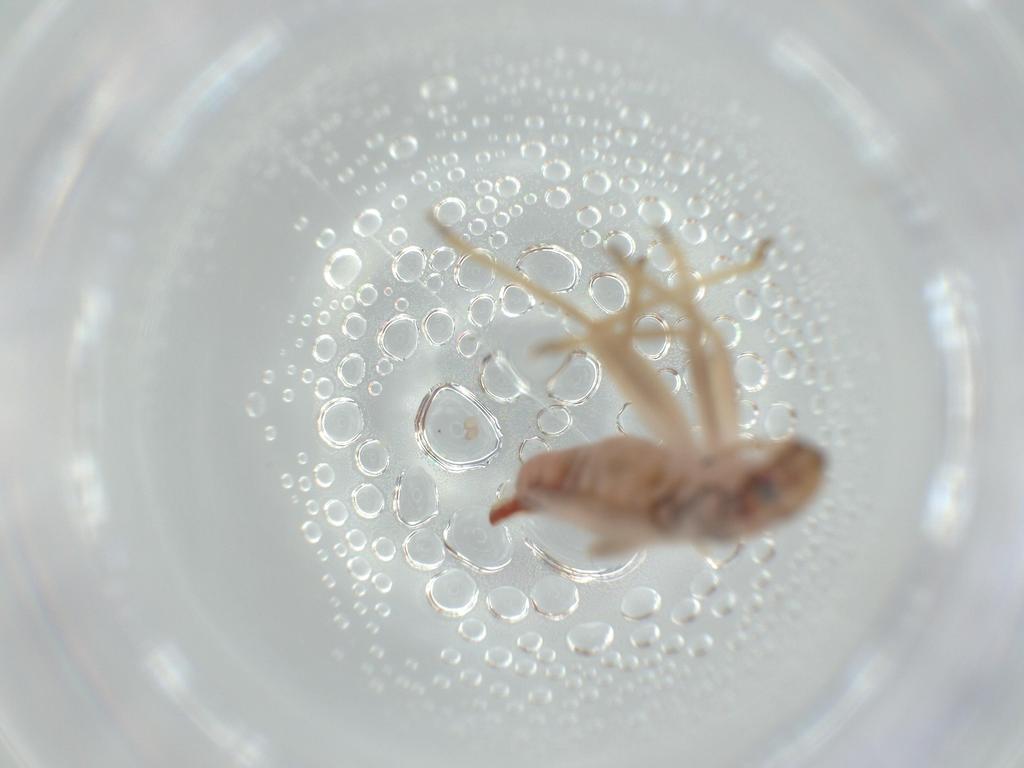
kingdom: Animalia
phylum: Arthropoda
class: Insecta
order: Hemiptera
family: Miridae
